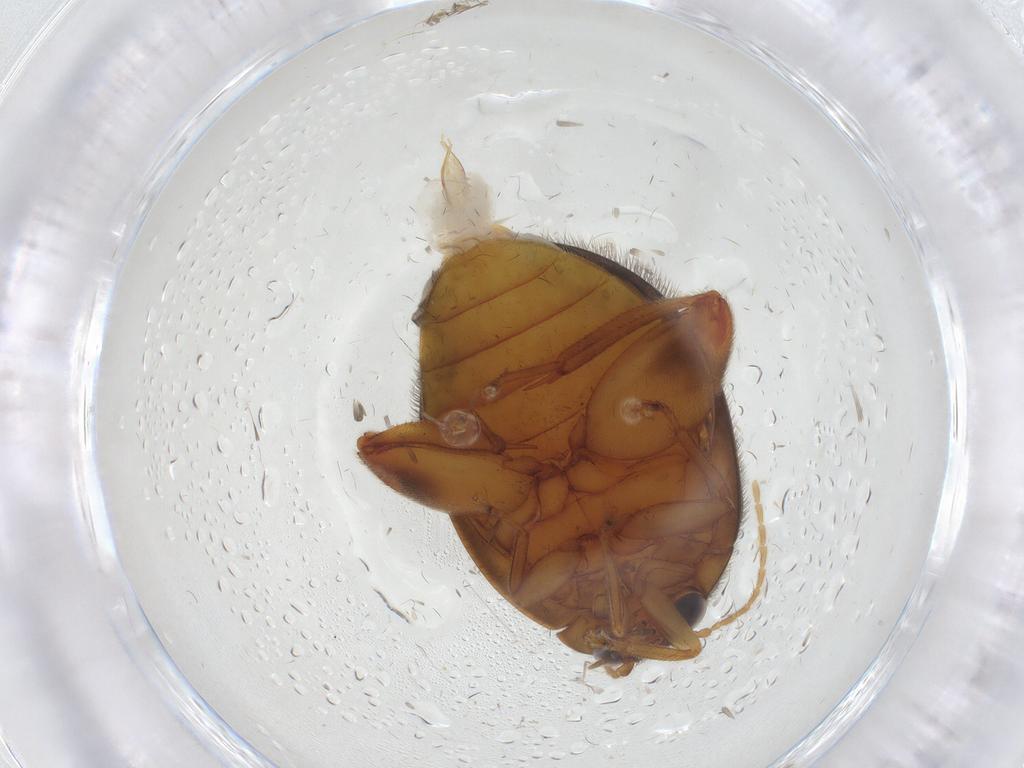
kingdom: Animalia
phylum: Arthropoda
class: Insecta
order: Coleoptera
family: Scirtidae
